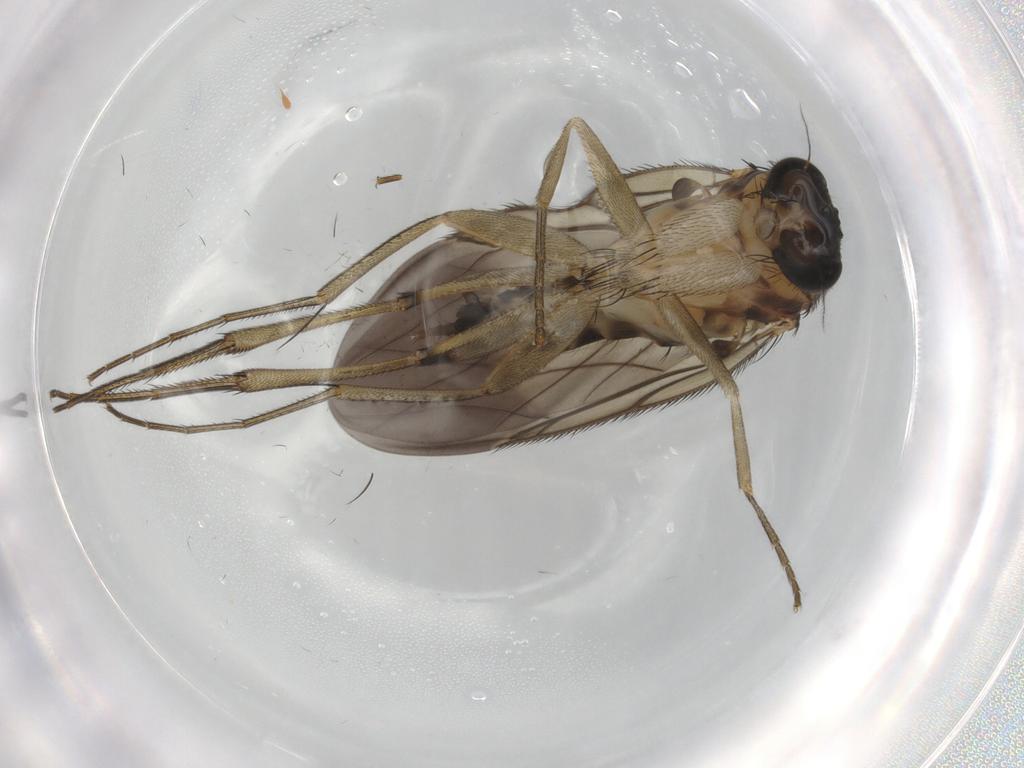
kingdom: Animalia
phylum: Arthropoda
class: Insecta
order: Diptera
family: Phoridae
